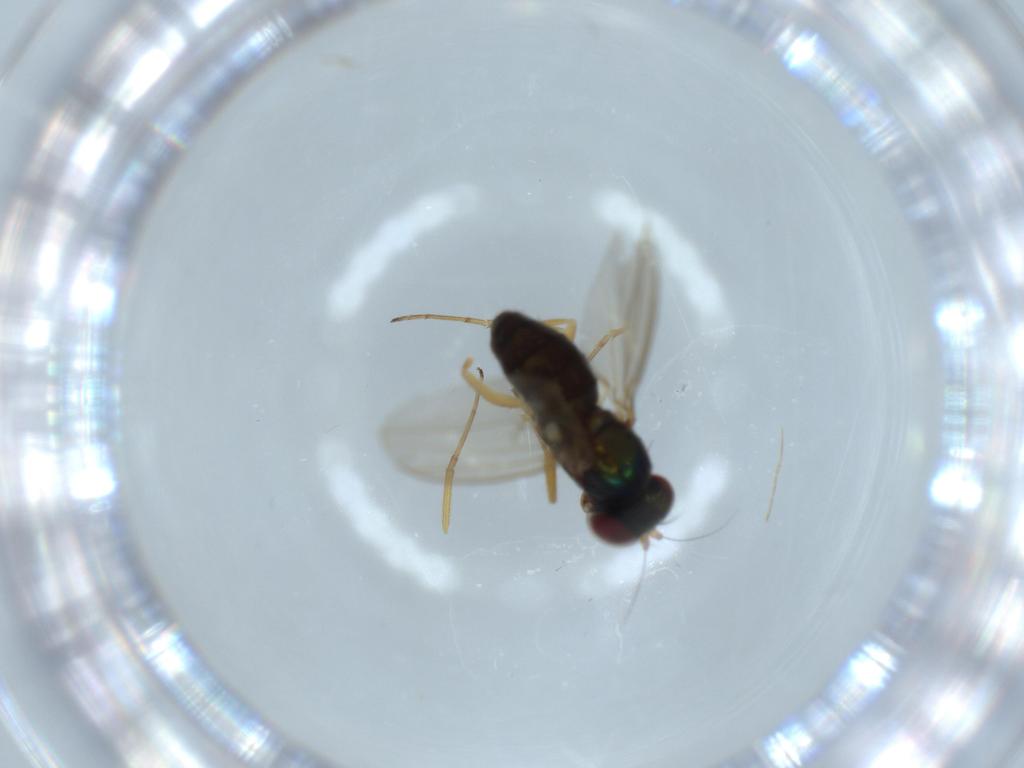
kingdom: Animalia
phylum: Arthropoda
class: Insecta
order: Diptera
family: Dolichopodidae
